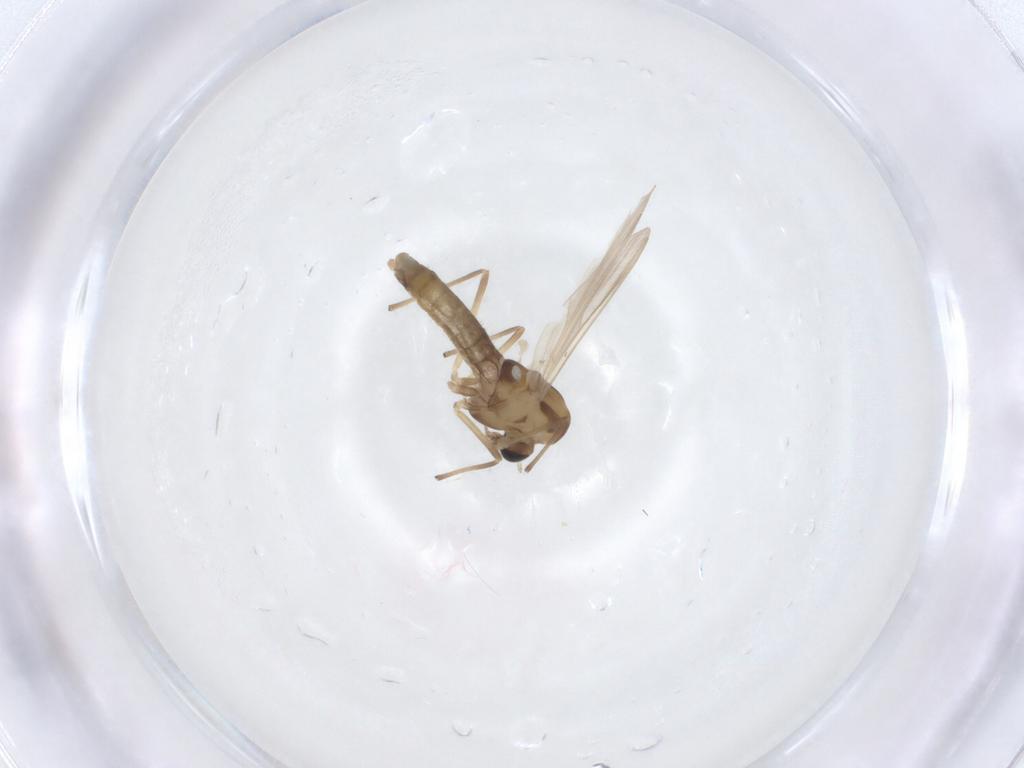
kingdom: Animalia
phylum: Arthropoda
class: Insecta
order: Diptera
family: Chironomidae
